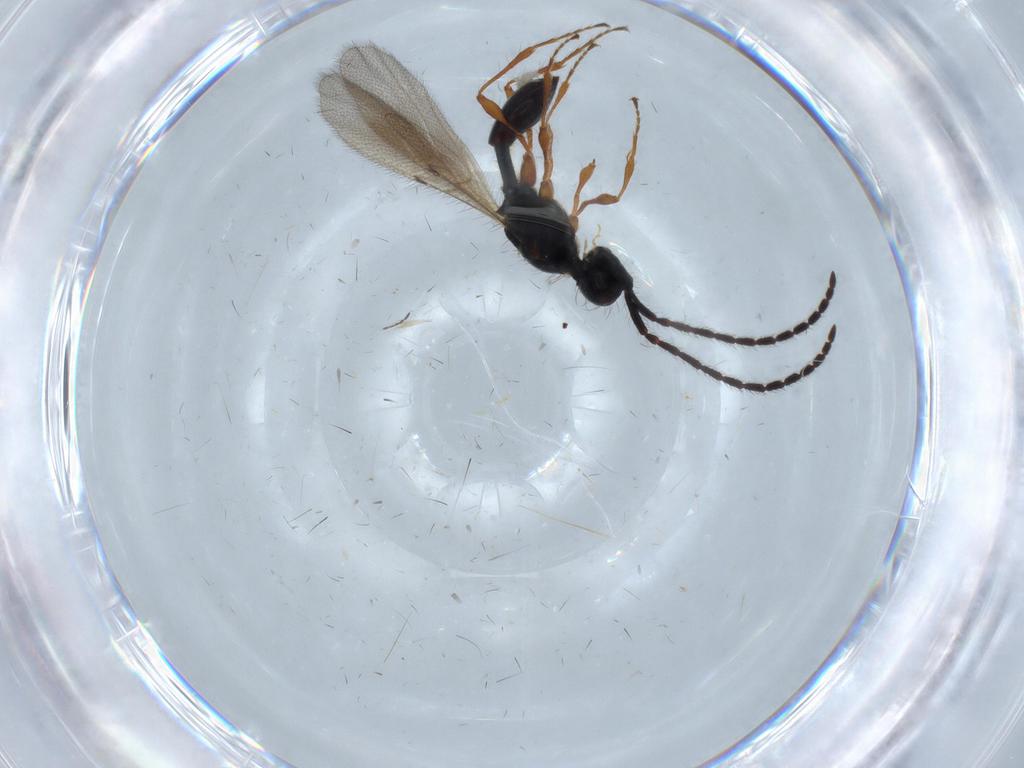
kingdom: Animalia
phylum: Arthropoda
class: Insecta
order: Hymenoptera
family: Diapriidae
